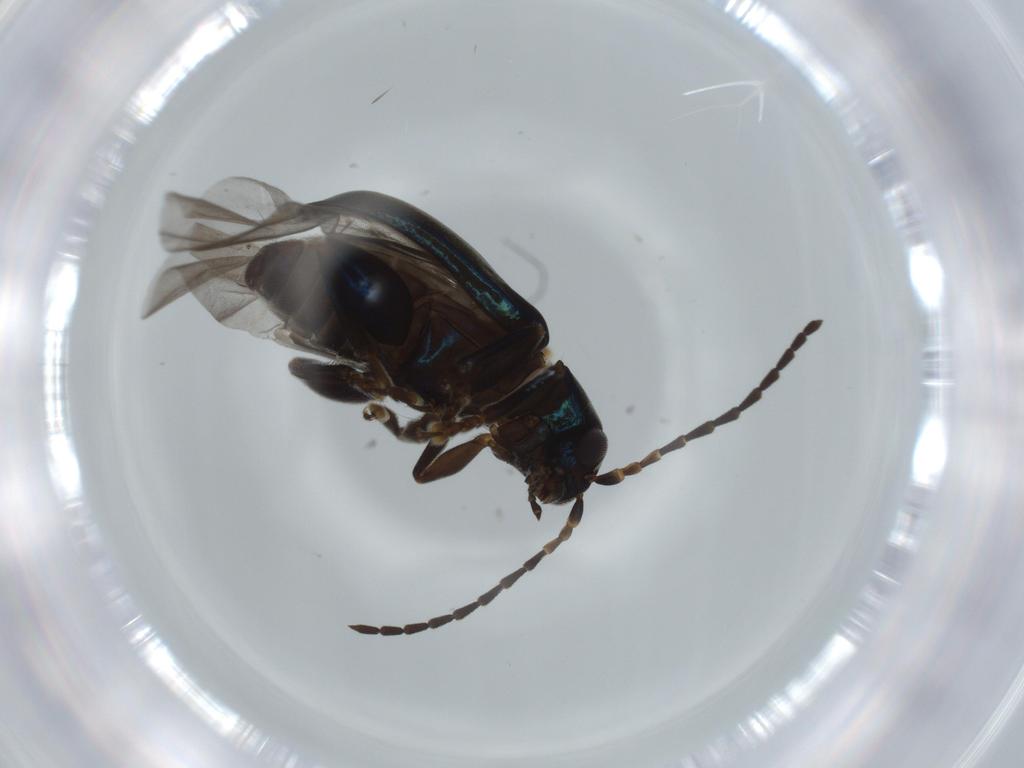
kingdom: Animalia
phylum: Arthropoda
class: Insecta
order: Coleoptera
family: Chrysomelidae
